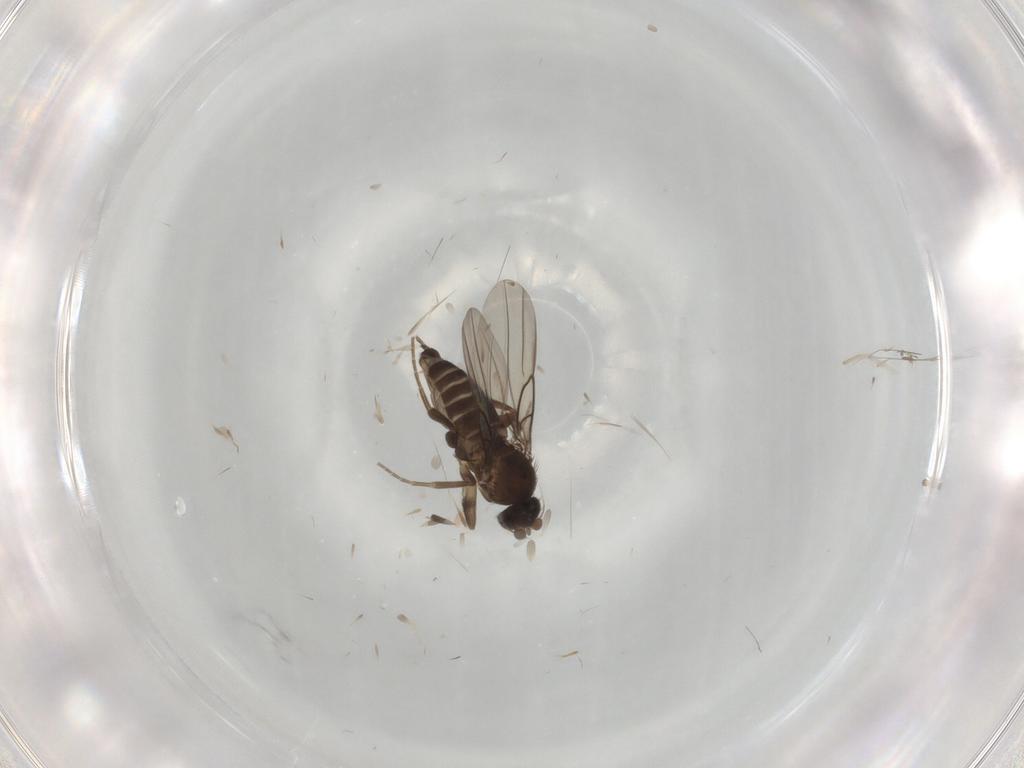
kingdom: Animalia
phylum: Arthropoda
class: Insecta
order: Diptera
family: Phoridae
